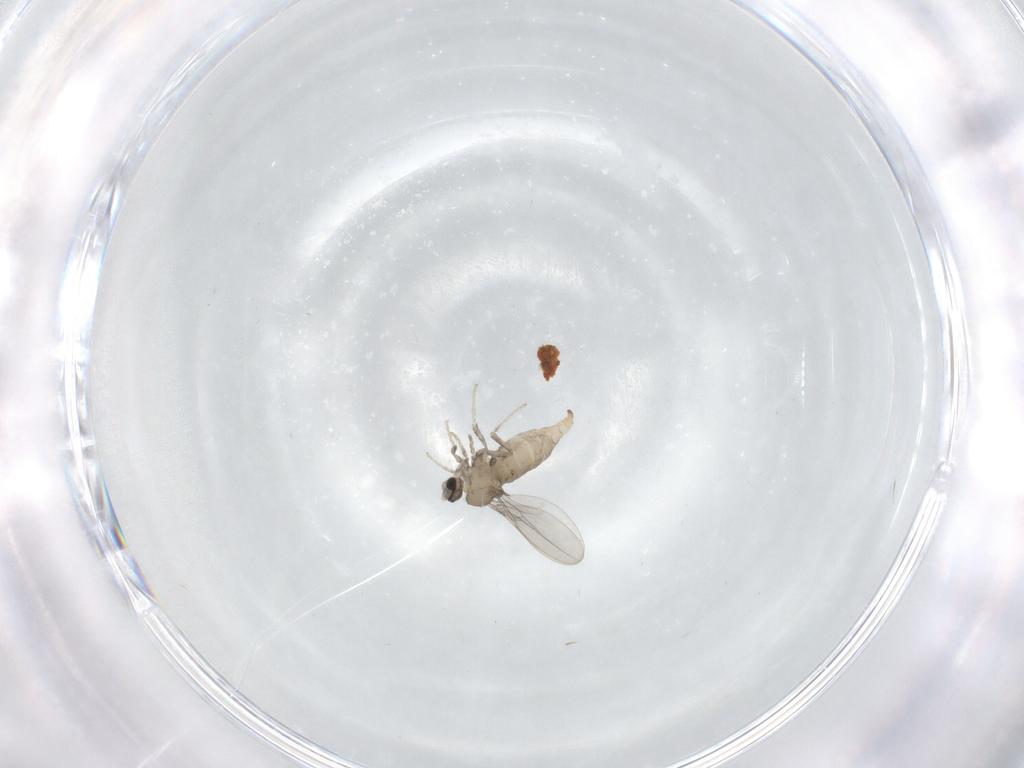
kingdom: Animalia
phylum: Arthropoda
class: Insecta
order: Diptera
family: Cecidomyiidae
